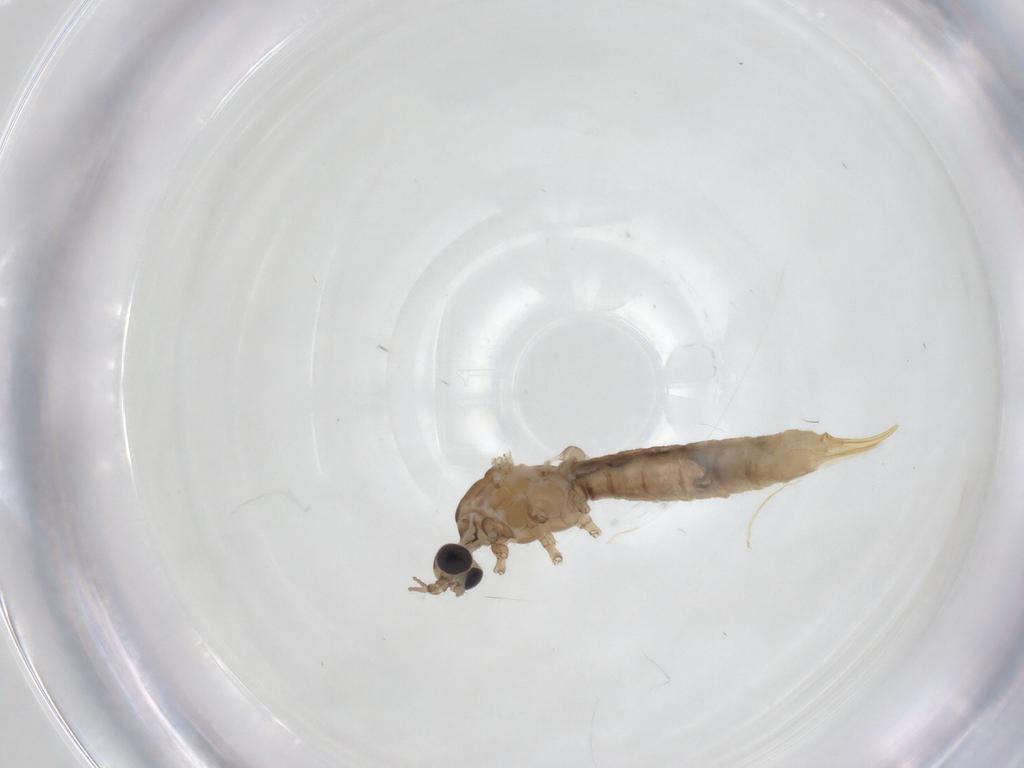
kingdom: Animalia
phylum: Arthropoda
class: Insecta
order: Diptera
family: Limoniidae
